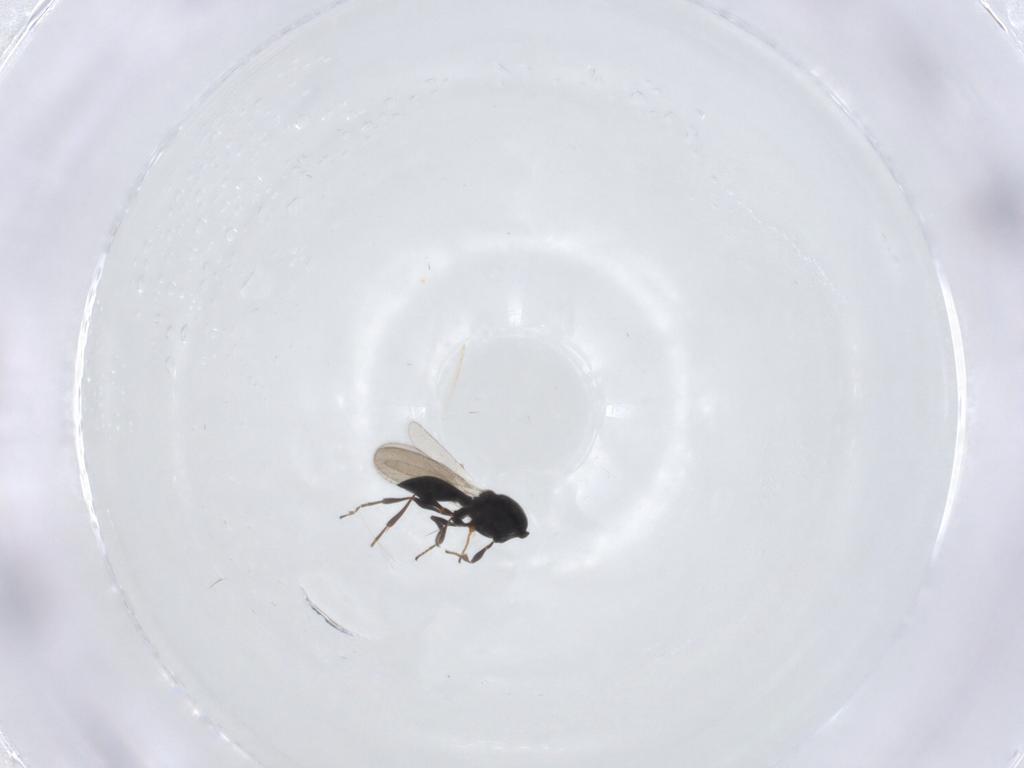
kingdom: Animalia
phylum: Arthropoda
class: Insecta
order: Hymenoptera
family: Platygastridae
